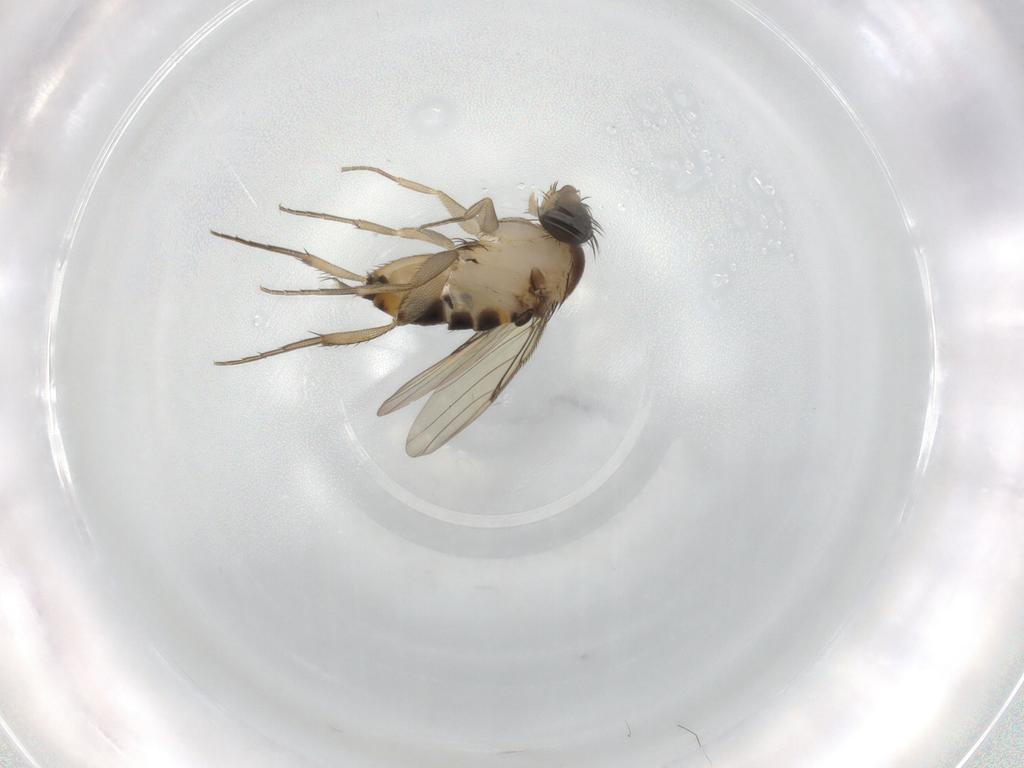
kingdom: Animalia
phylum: Arthropoda
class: Insecta
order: Diptera
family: Phoridae
